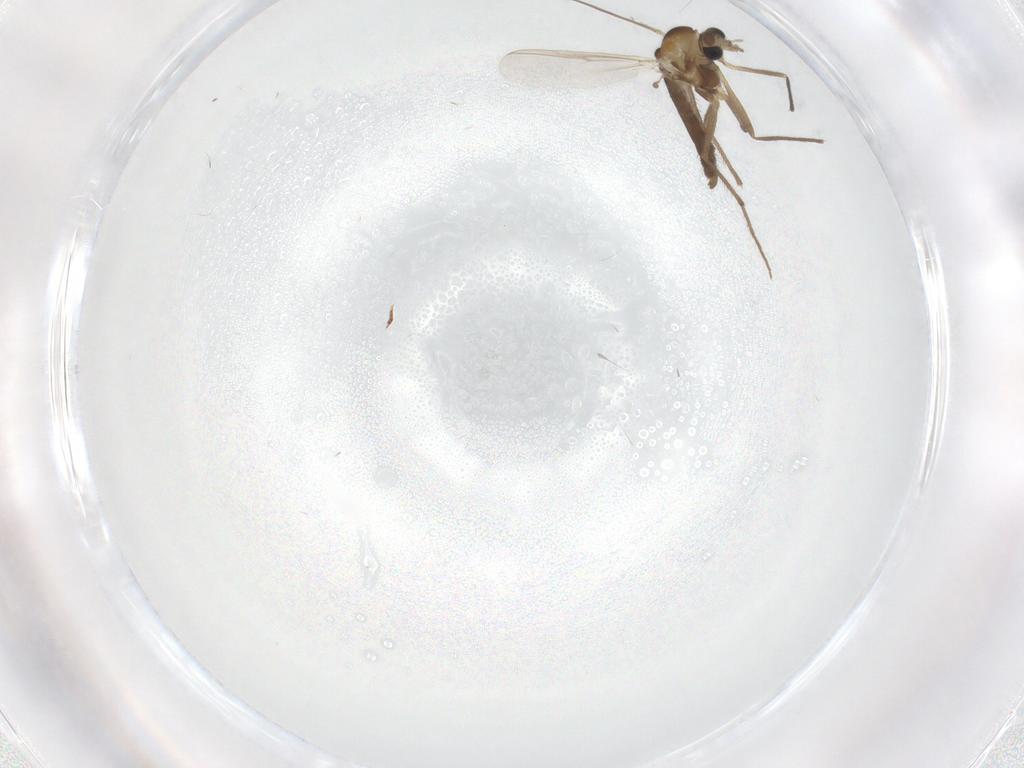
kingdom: Animalia
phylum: Arthropoda
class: Insecta
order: Diptera
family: Chironomidae
